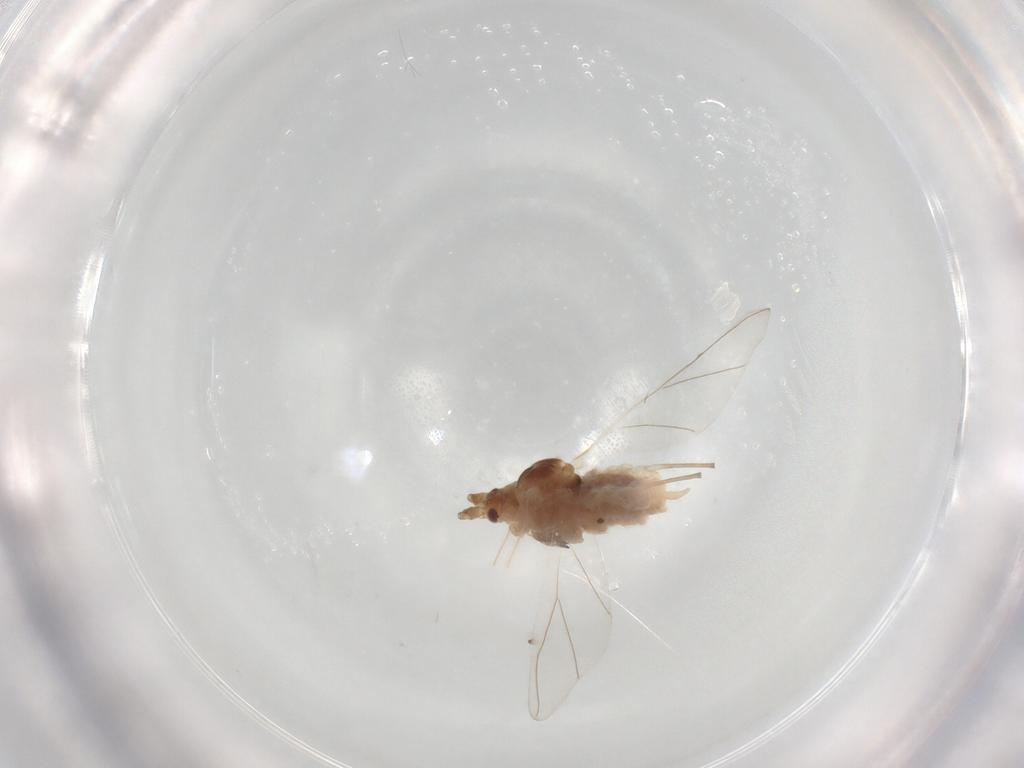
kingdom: Animalia
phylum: Arthropoda
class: Insecta
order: Hemiptera
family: Aphididae
